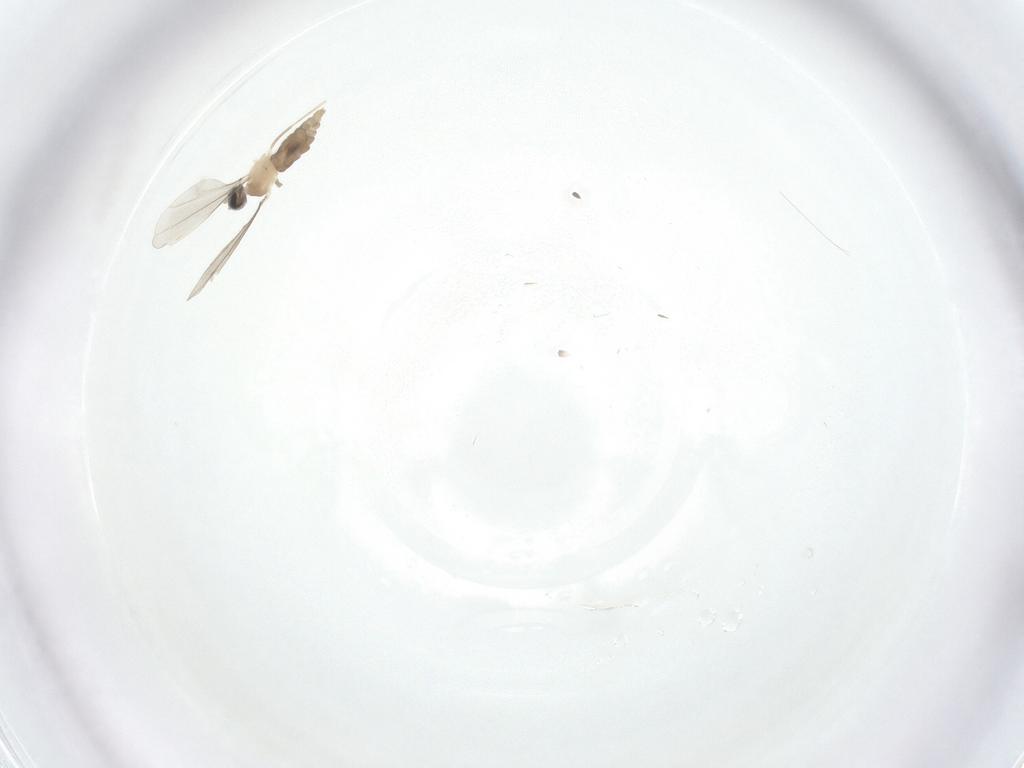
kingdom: Animalia
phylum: Arthropoda
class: Insecta
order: Diptera
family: Cecidomyiidae
